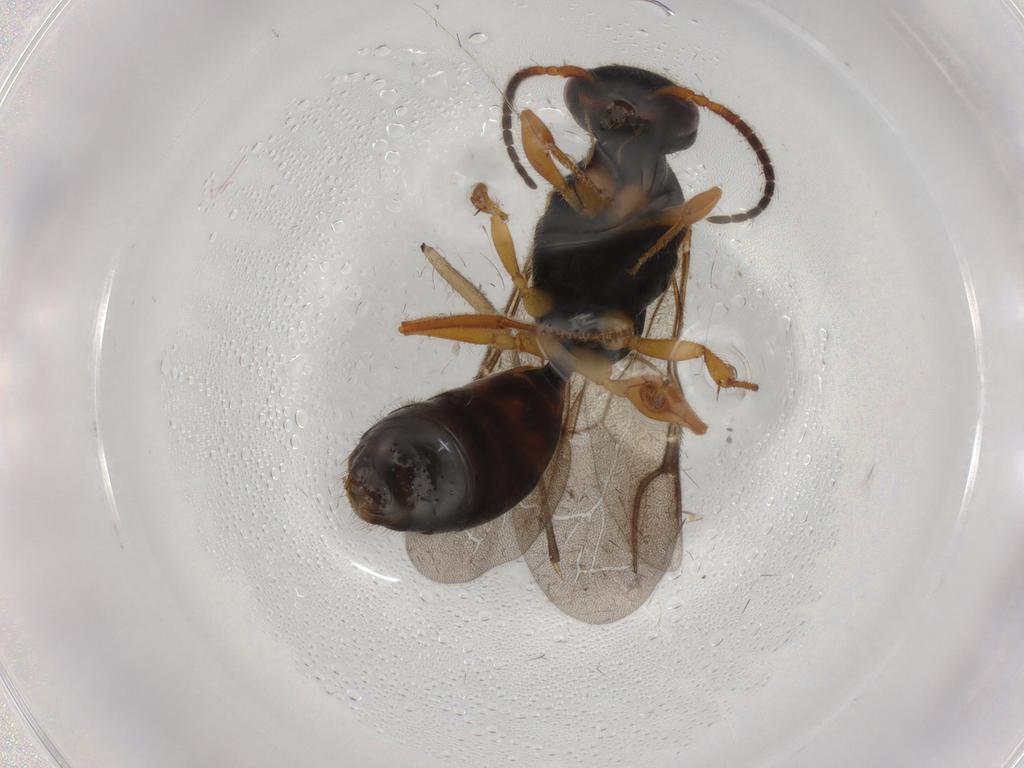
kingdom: Animalia
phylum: Arthropoda
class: Insecta
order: Hymenoptera
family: Bethylidae
